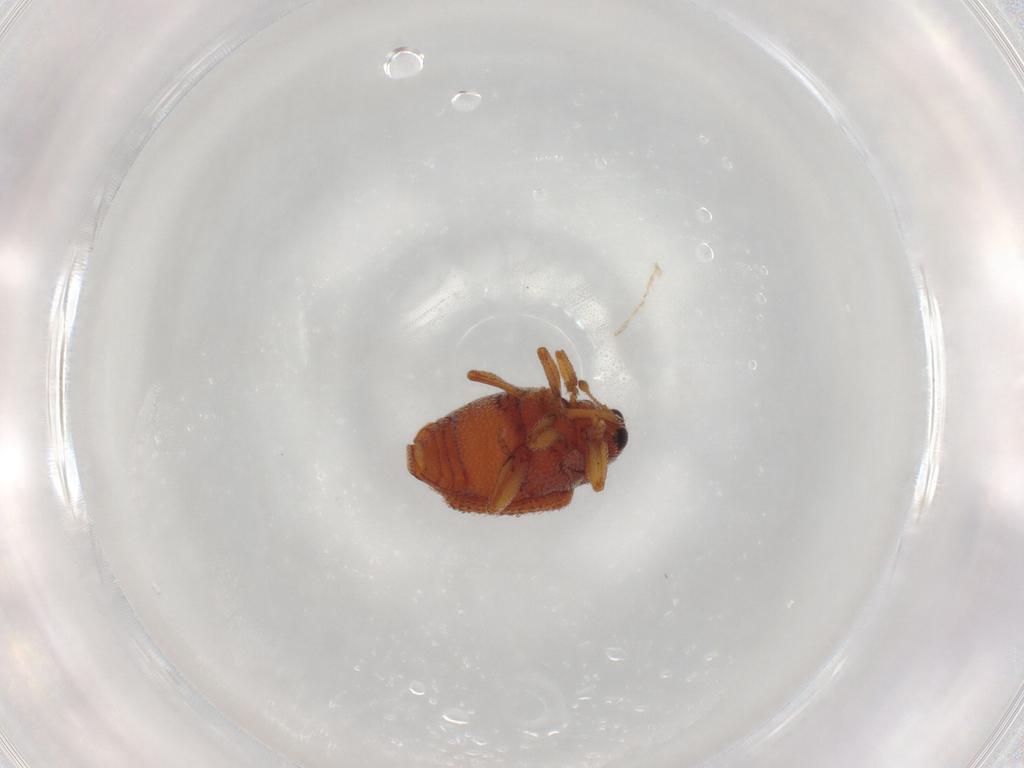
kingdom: Animalia
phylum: Arthropoda
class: Insecta
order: Coleoptera
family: Curculionidae
